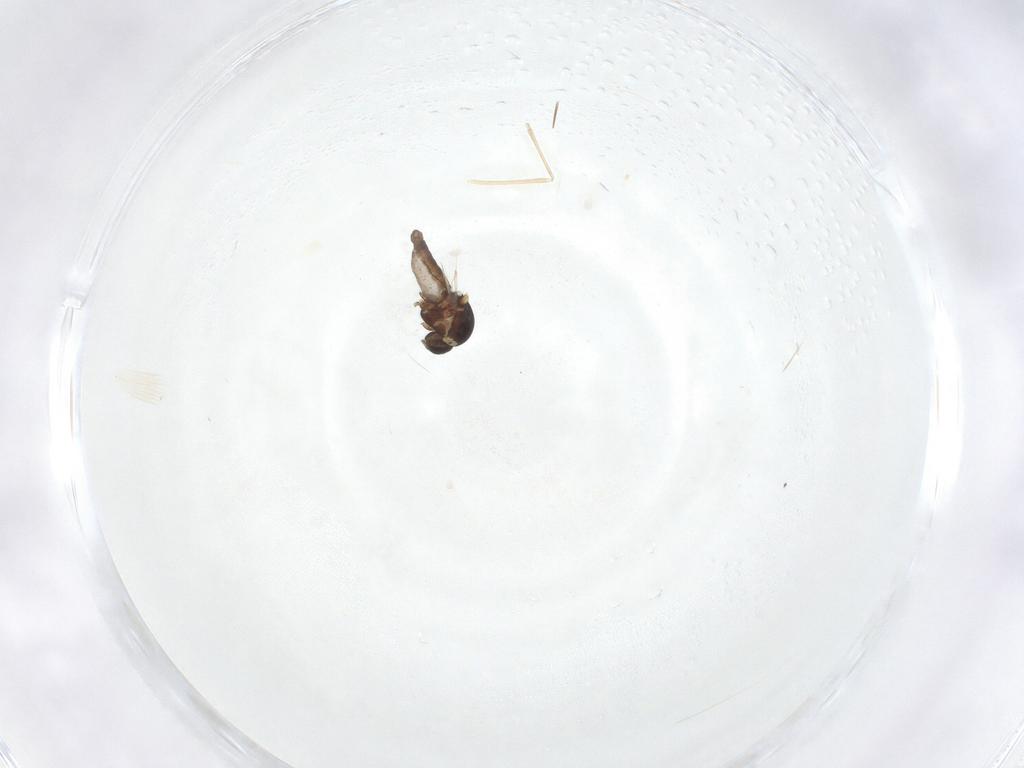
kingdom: Animalia
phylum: Arthropoda
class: Insecta
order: Diptera
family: Cecidomyiidae
